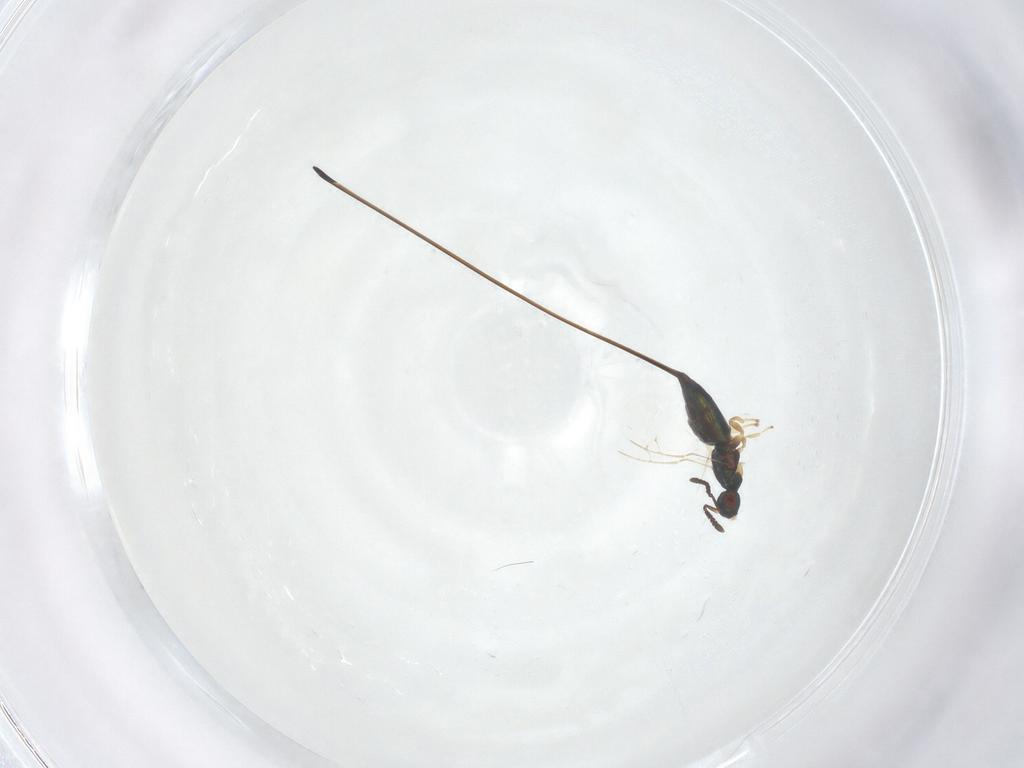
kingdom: Animalia
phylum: Arthropoda
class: Insecta
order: Hymenoptera
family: Pteromalidae
